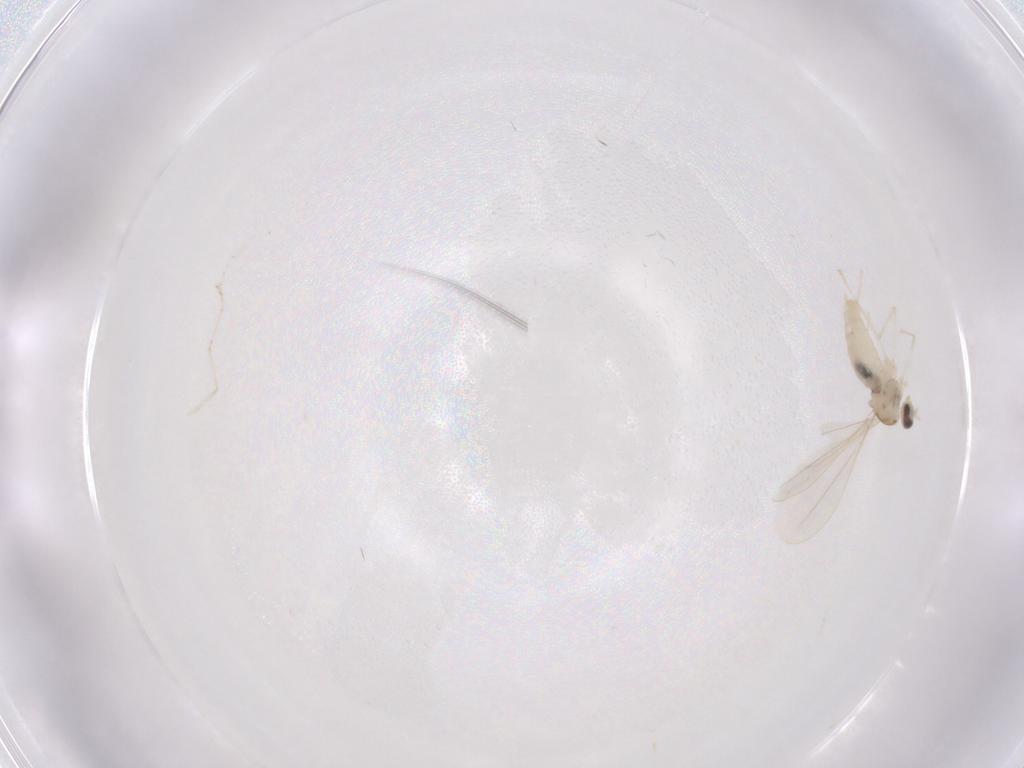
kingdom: Animalia
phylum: Arthropoda
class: Insecta
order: Diptera
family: Cecidomyiidae
